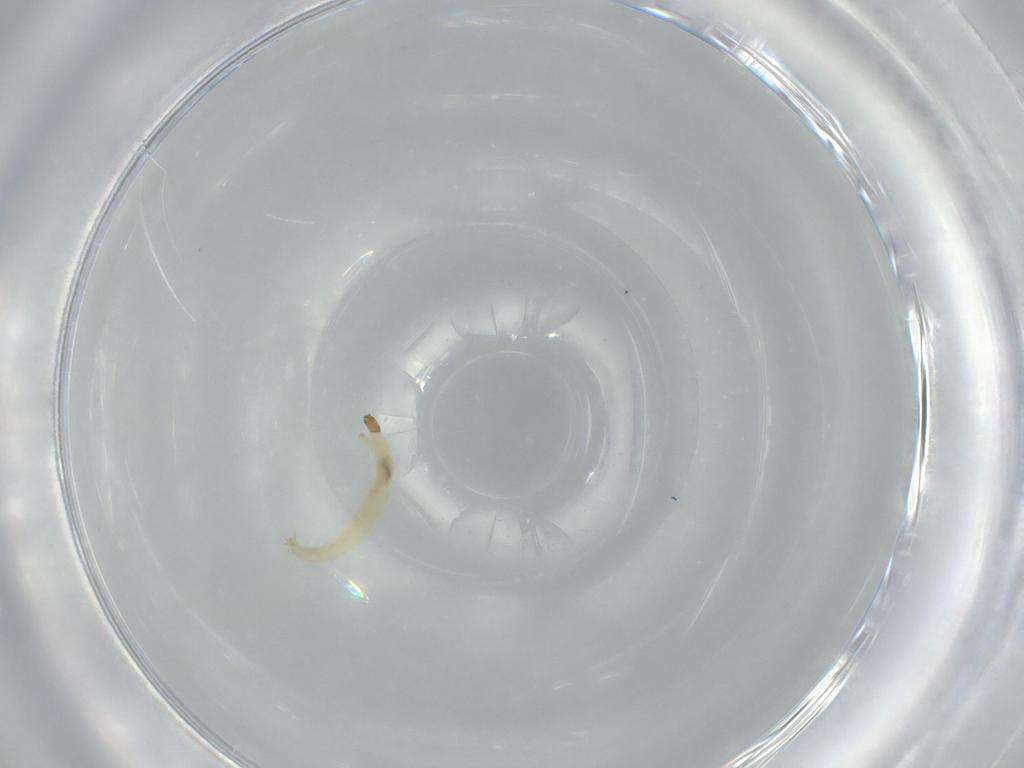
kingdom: Animalia
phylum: Arthropoda
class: Insecta
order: Diptera
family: Chironomidae
